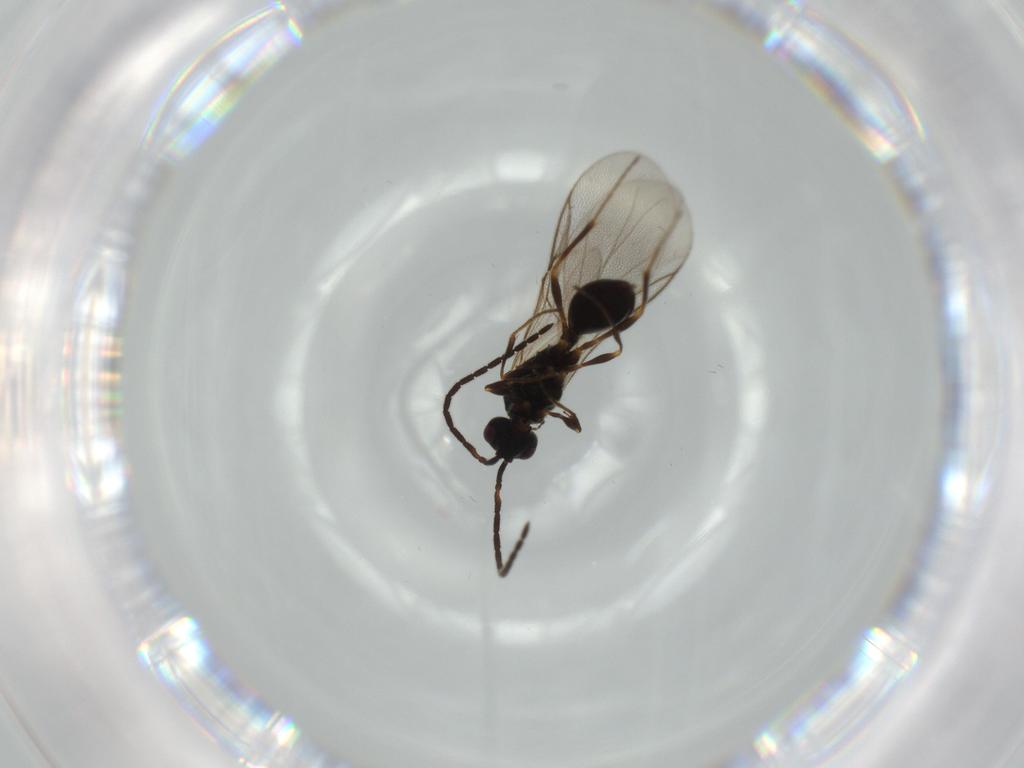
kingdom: Animalia
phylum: Arthropoda
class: Insecta
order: Hymenoptera
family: Diapriidae
